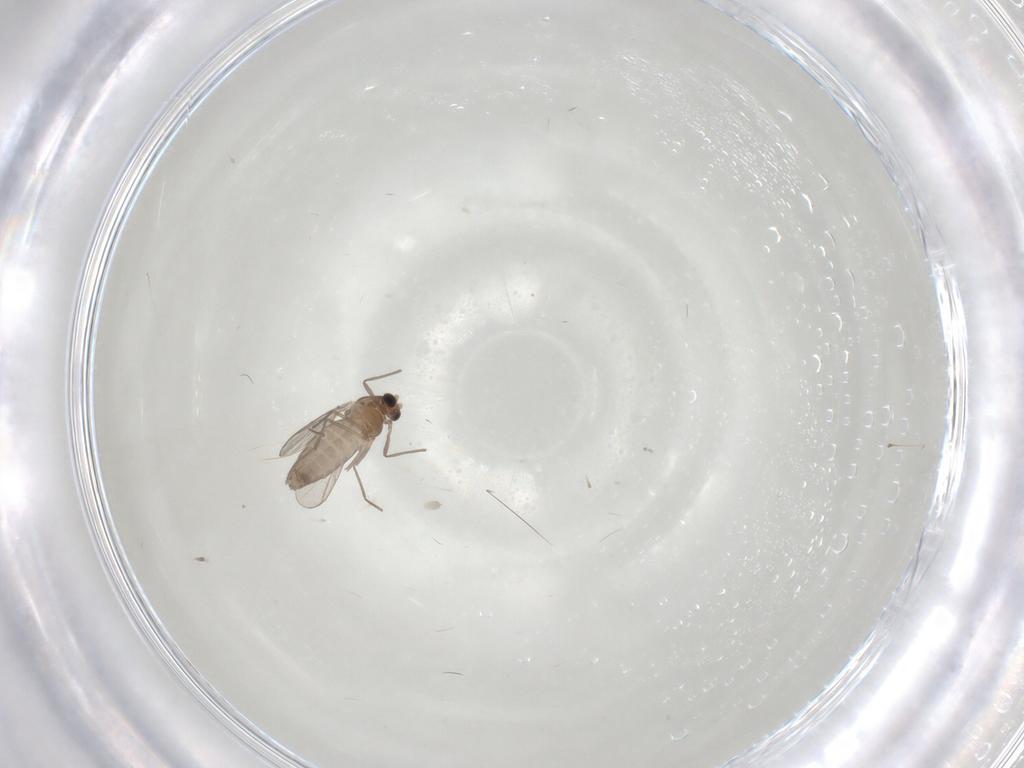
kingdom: Animalia
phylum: Arthropoda
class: Insecta
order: Diptera
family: Chironomidae
